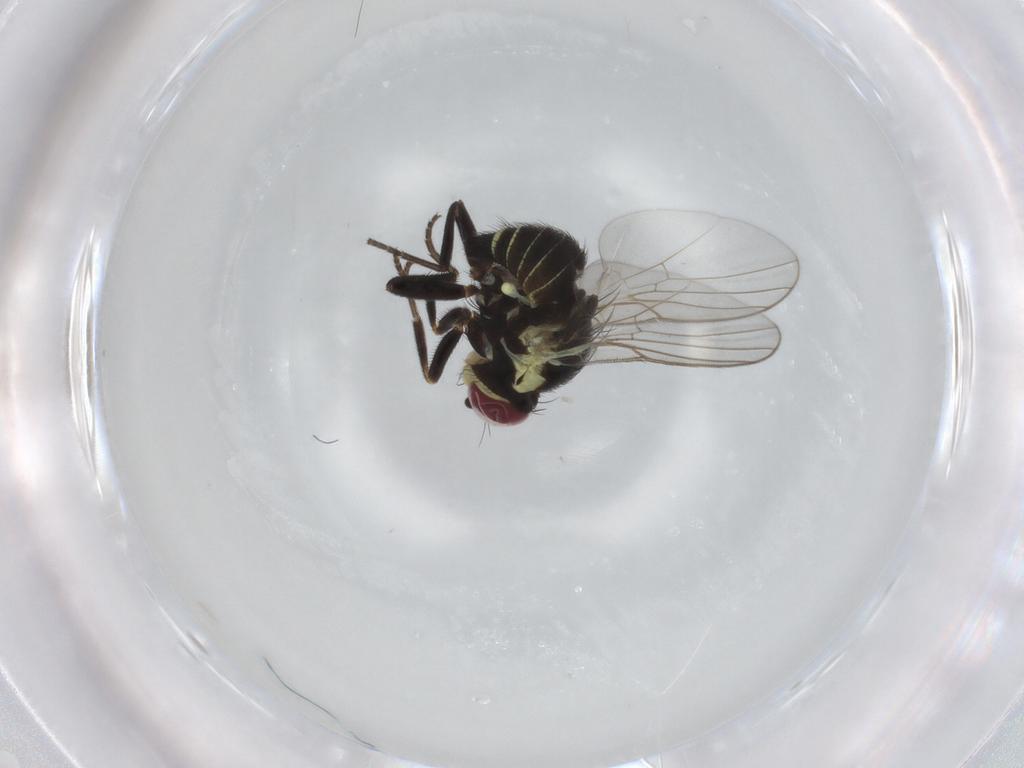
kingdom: Animalia
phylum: Arthropoda
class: Insecta
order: Diptera
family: Agromyzidae
